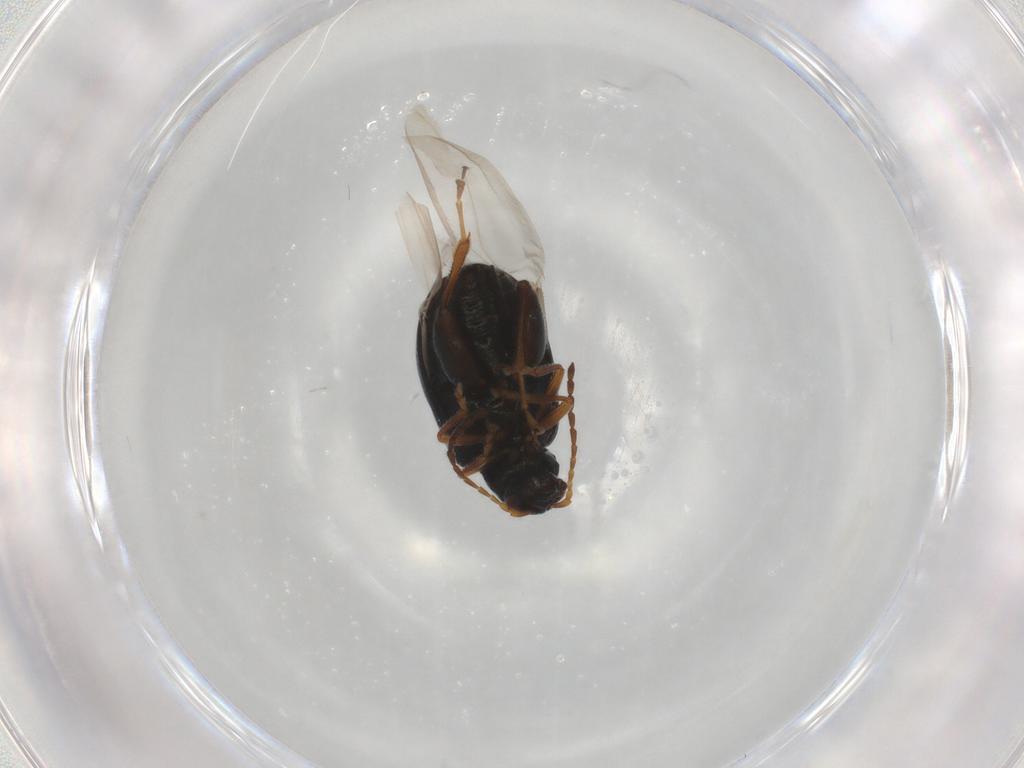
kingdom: Animalia
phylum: Arthropoda
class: Insecta
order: Coleoptera
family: Chrysomelidae
